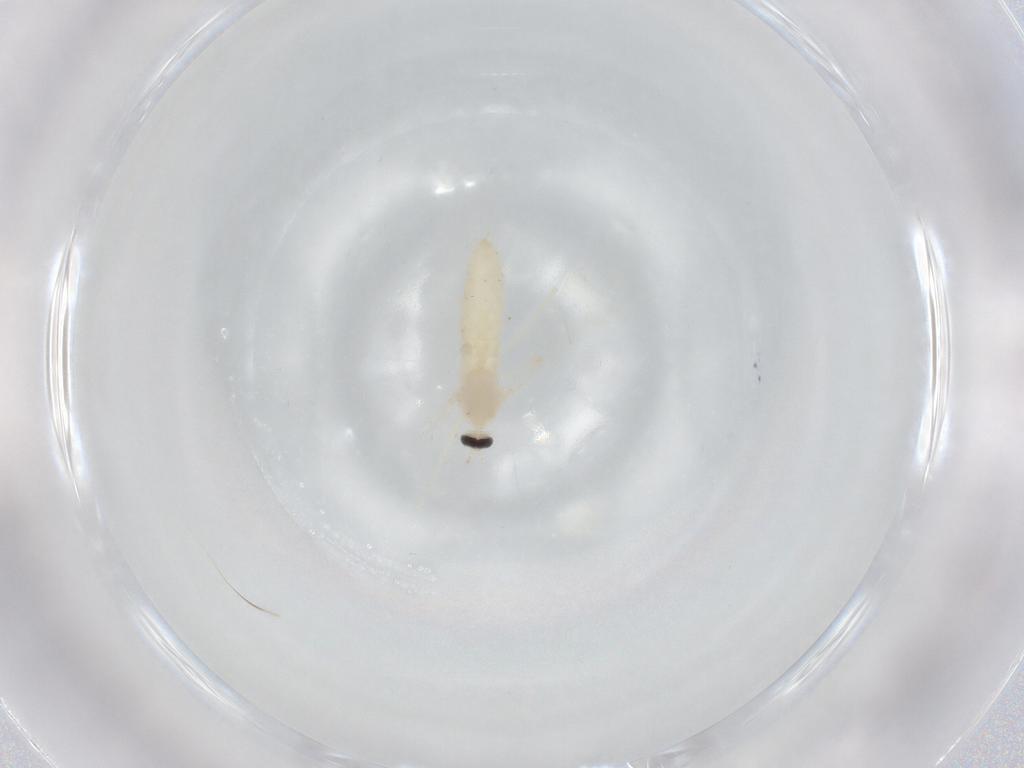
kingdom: Animalia
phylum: Arthropoda
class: Insecta
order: Diptera
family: Cecidomyiidae
